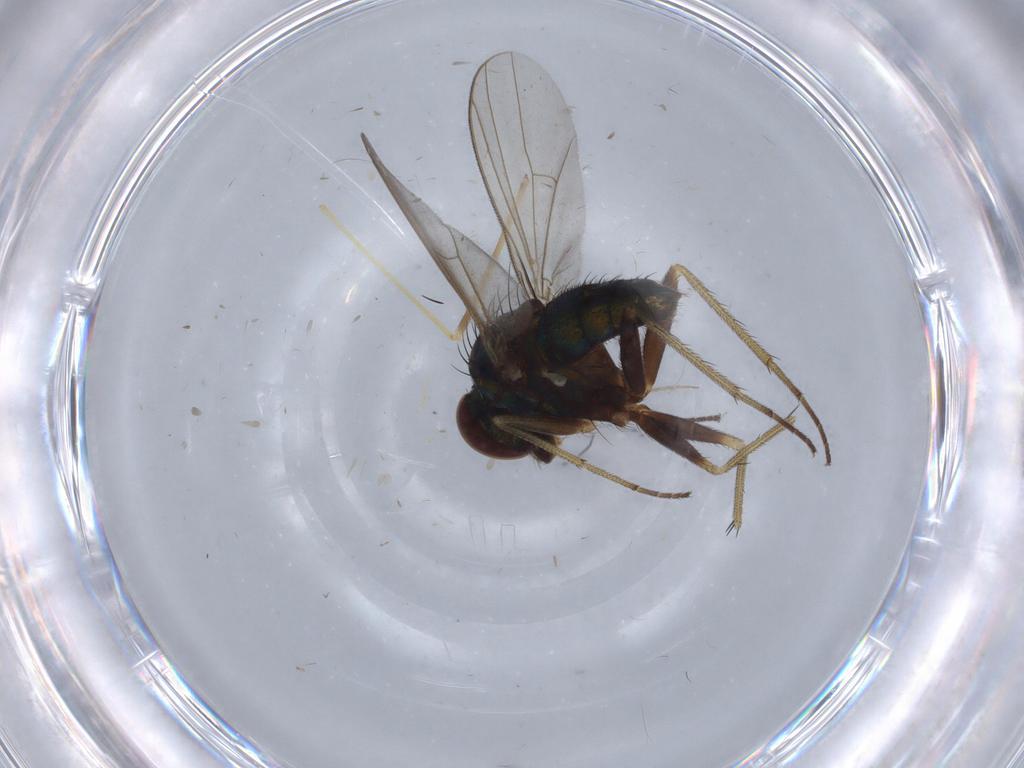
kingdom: Animalia
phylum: Arthropoda
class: Insecta
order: Diptera
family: Dolichopodidae
